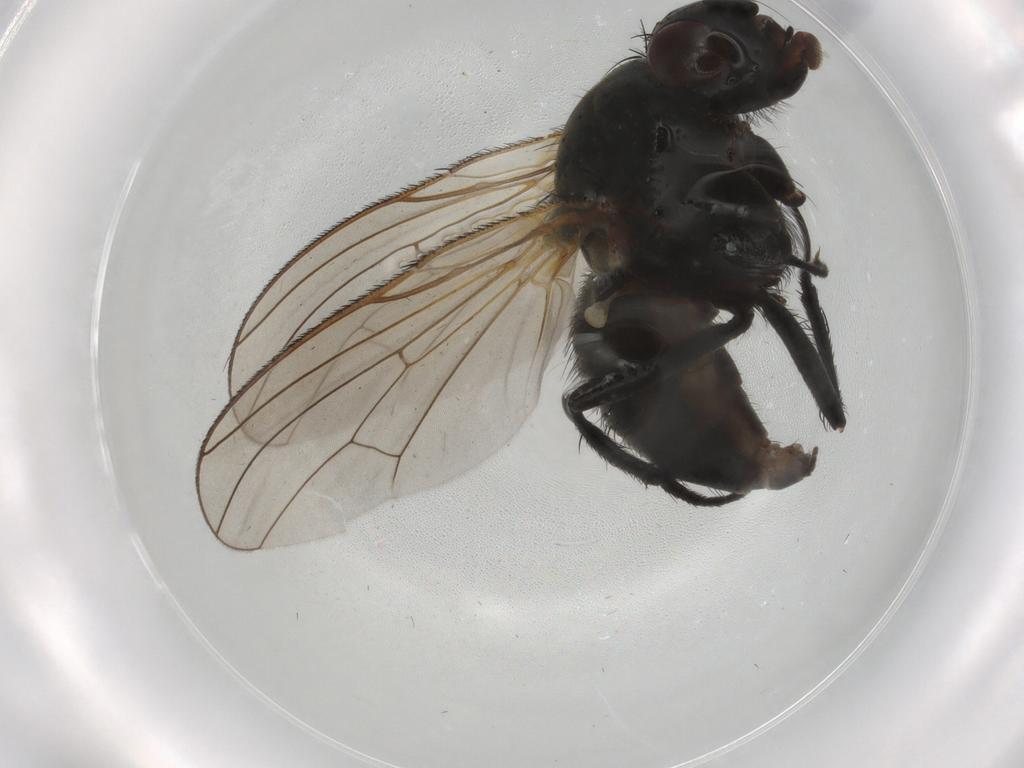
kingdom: Animalia
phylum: Arthropoda
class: Insecta
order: Diptera
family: Anthomyiidae
